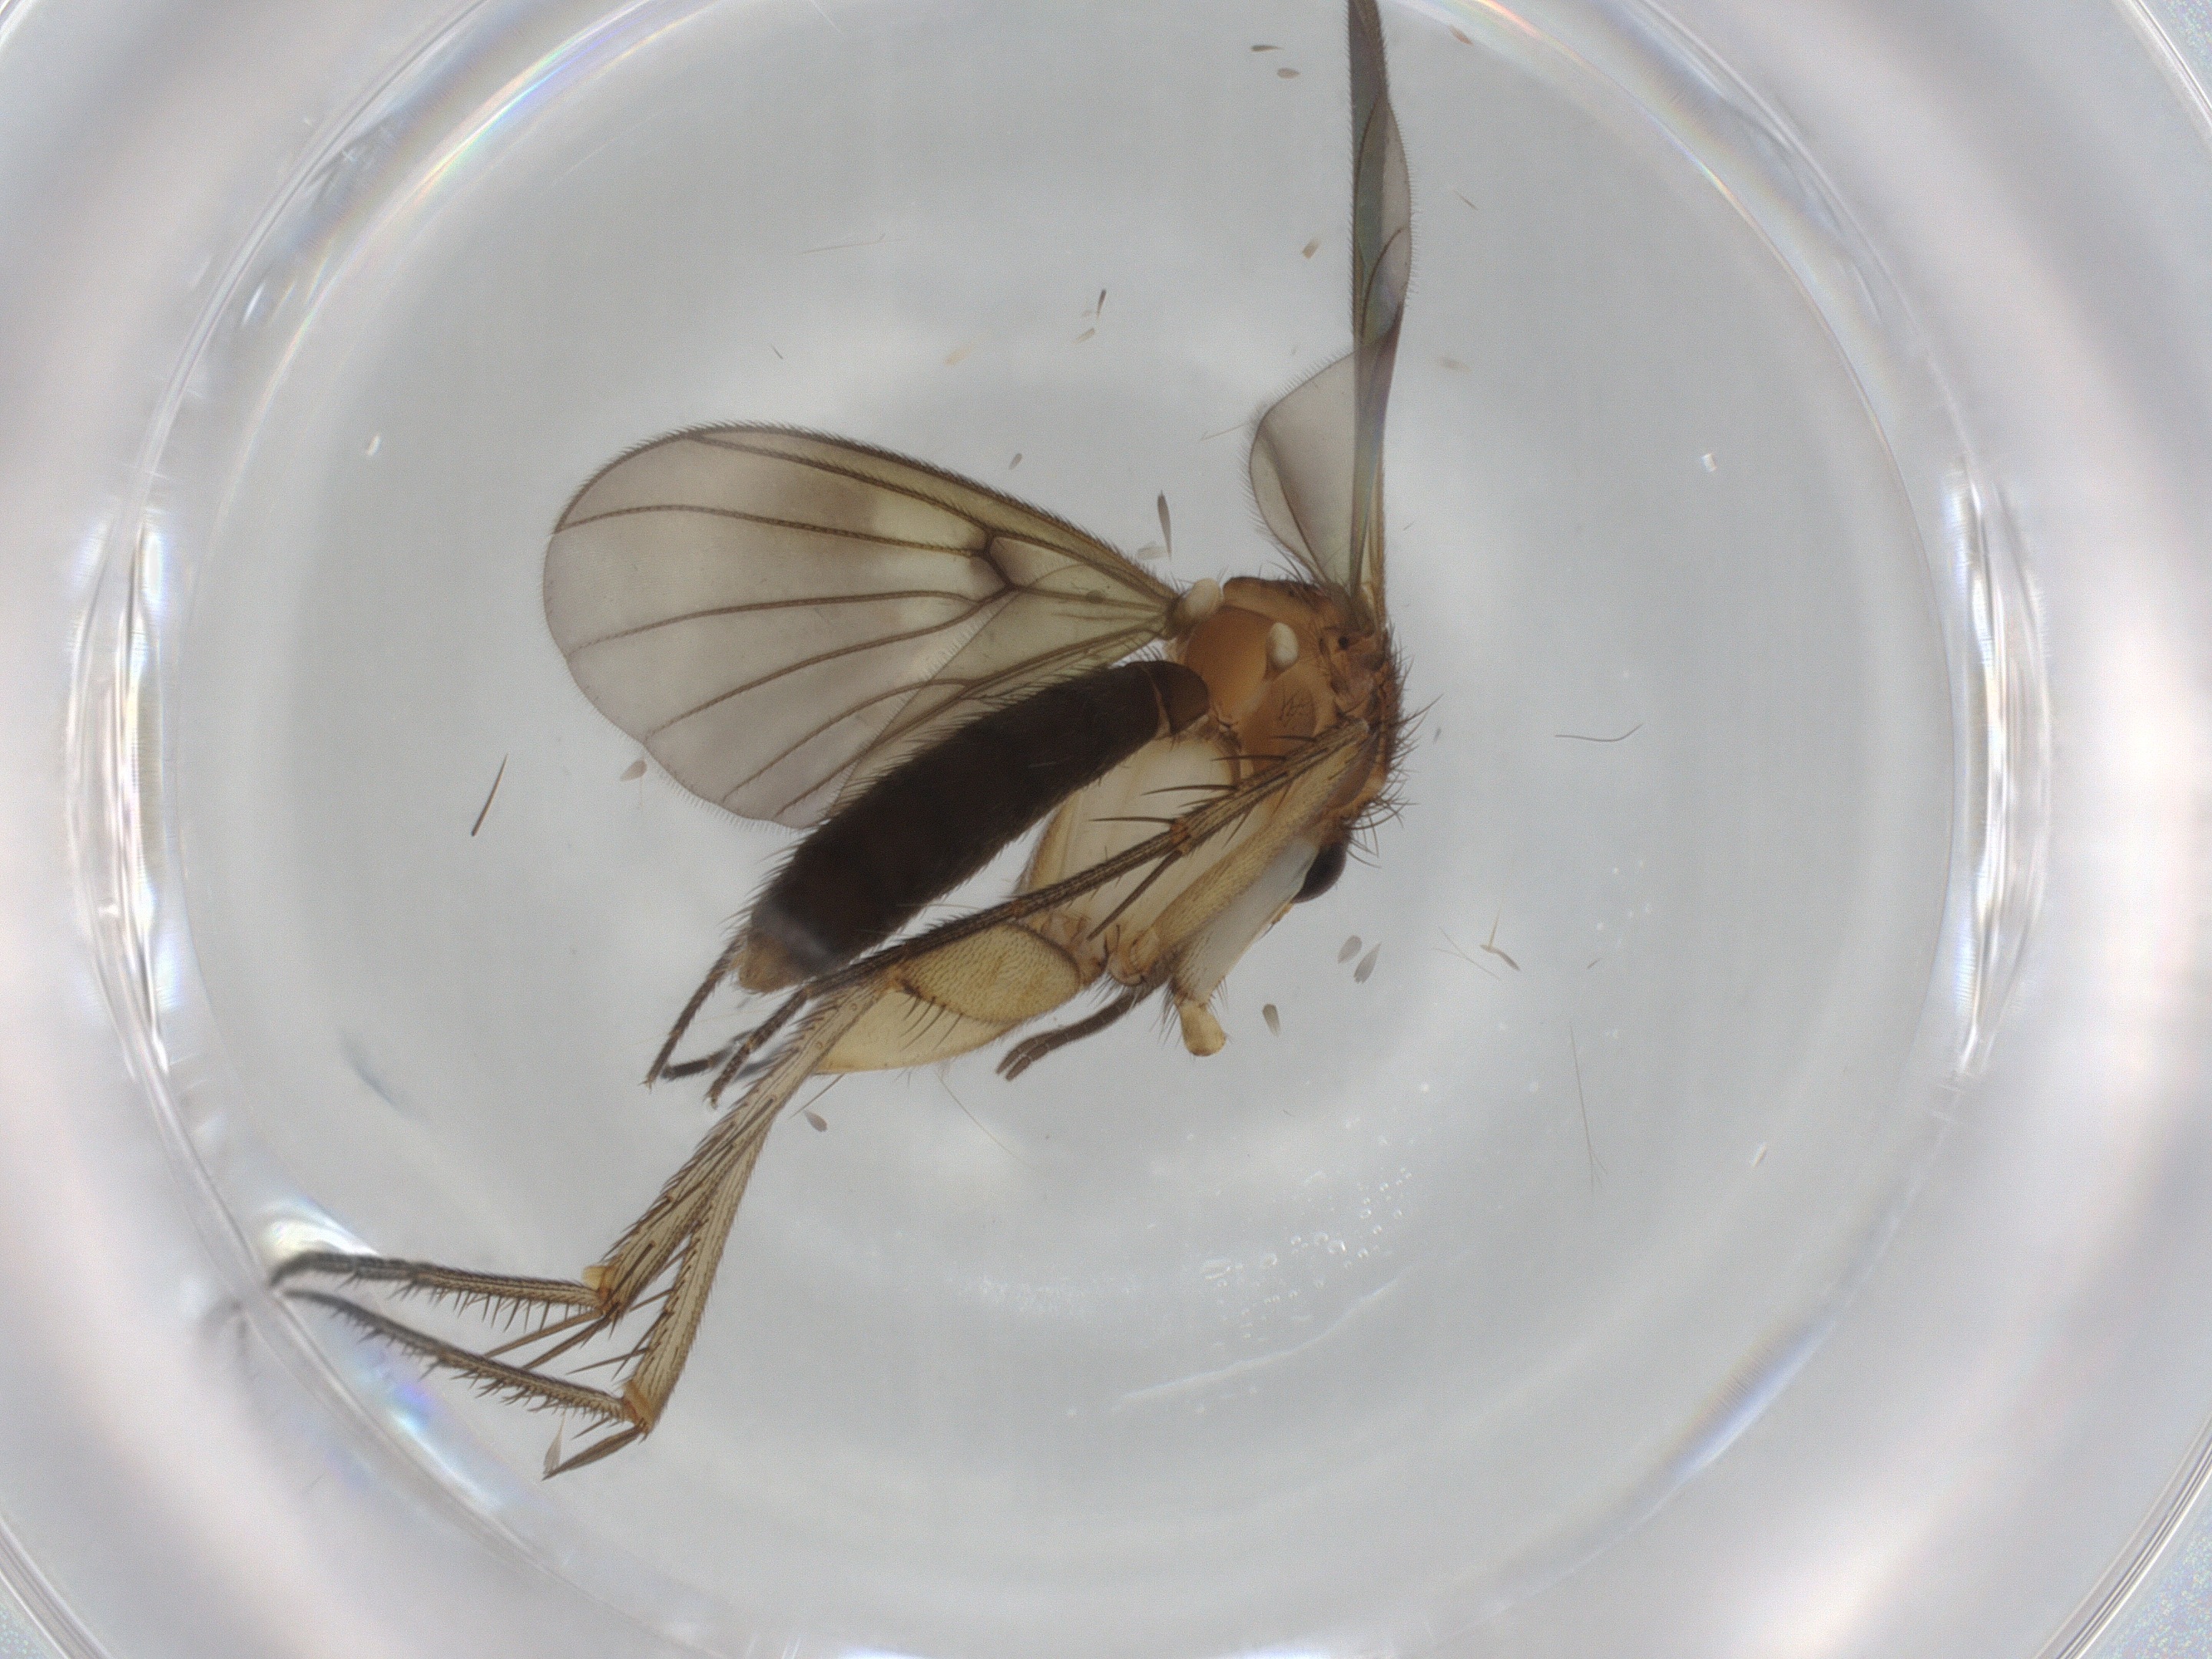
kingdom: Animalia
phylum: Arthropoda
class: Insecta
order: Diptera
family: Mycetophilidae
